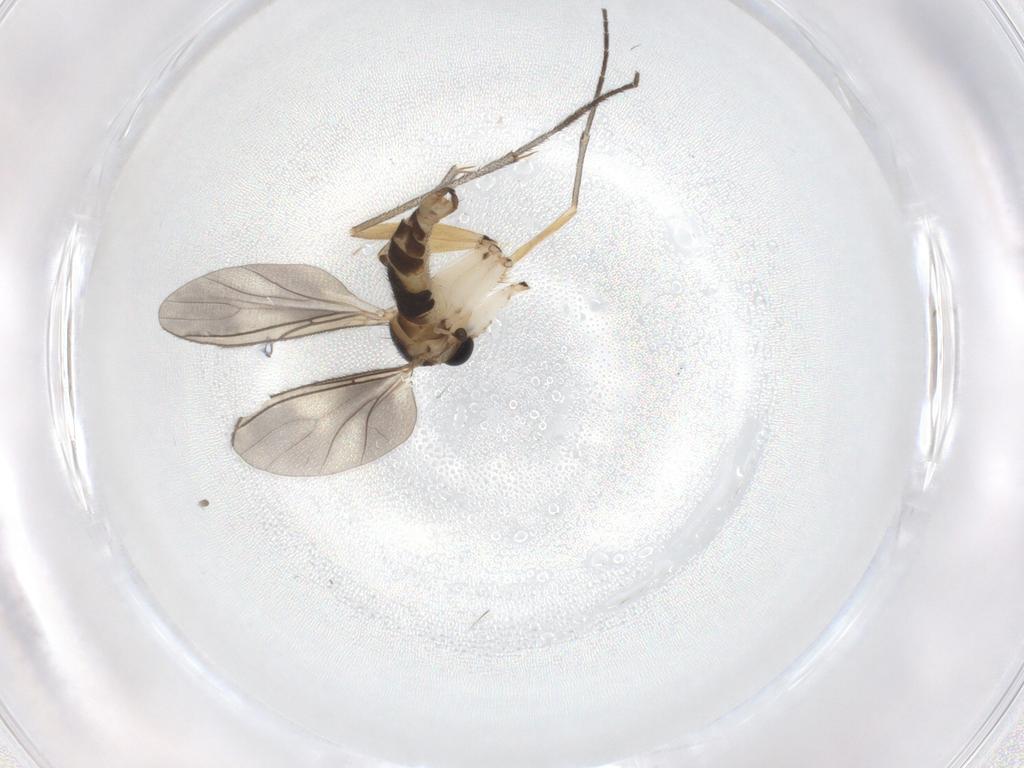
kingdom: Animalia
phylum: Arthropoda
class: Insecta
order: Diptera
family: Sciaridae
